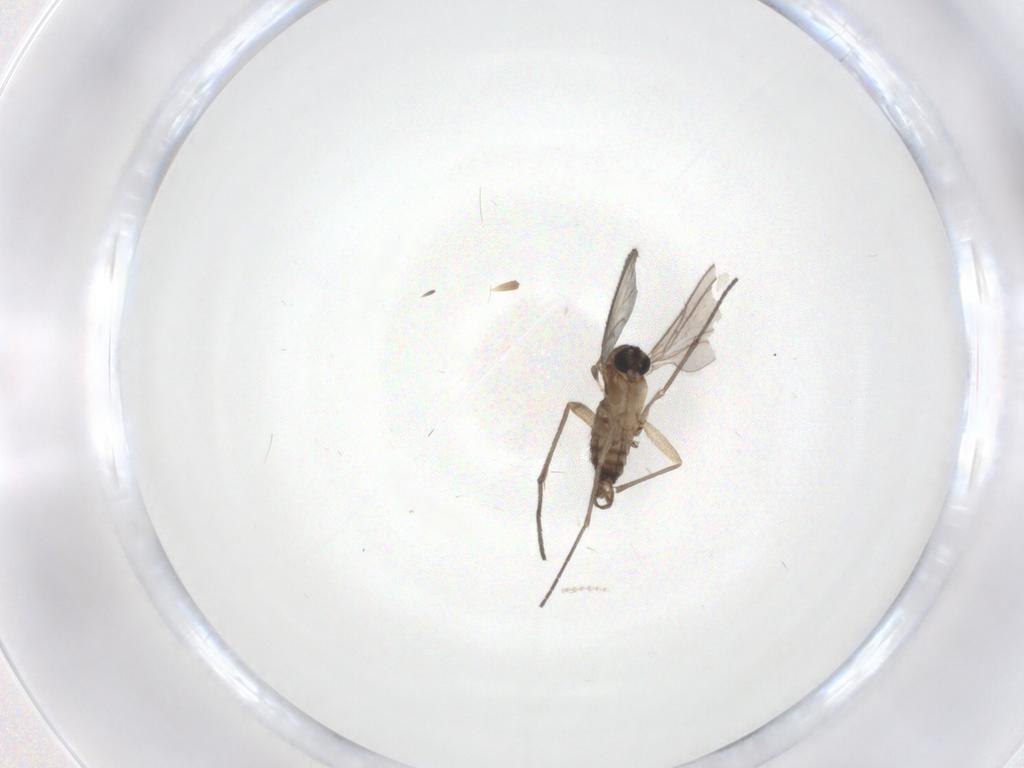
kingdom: Animalia
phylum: Arthropoda
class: Insecta
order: Diptera
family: Sciaridae
